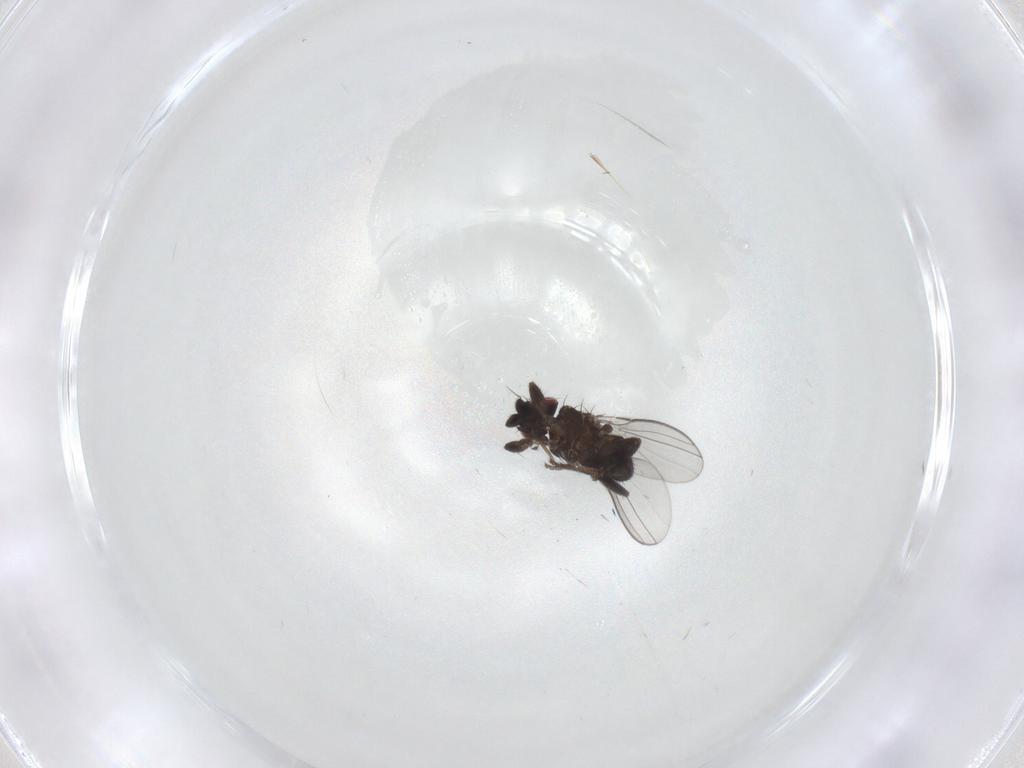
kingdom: Animalia
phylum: Arthropoda
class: Insecta
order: Diptera
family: Milichiidae
